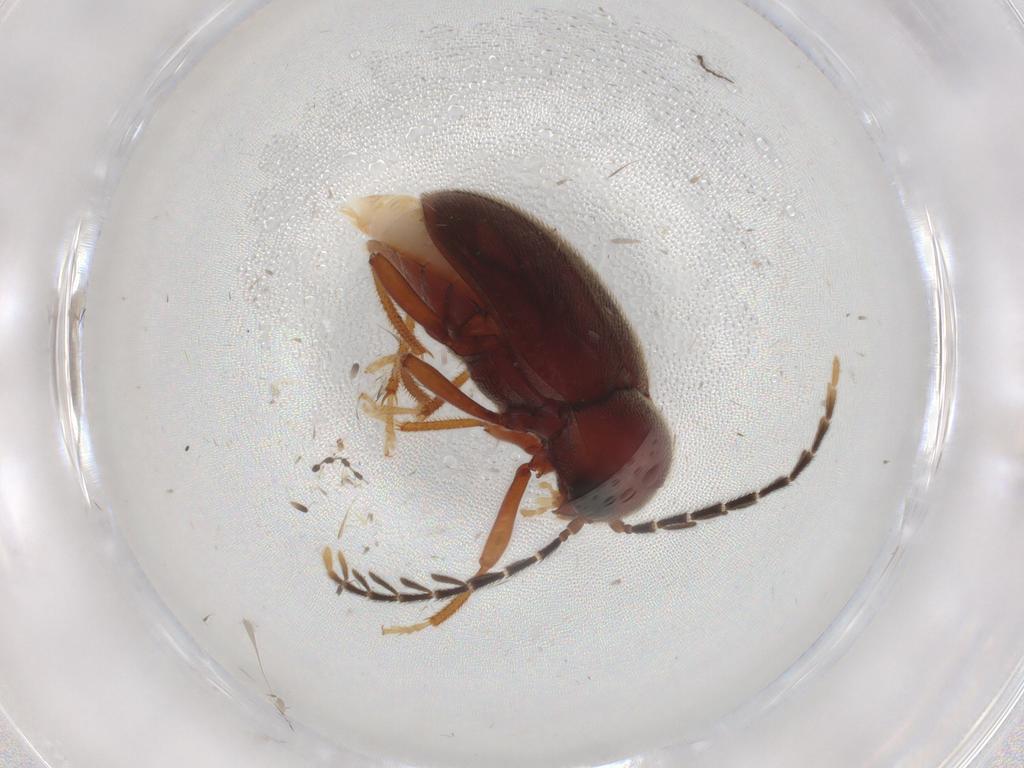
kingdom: Animalia
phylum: Arthropoda
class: Insecta
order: Coleoptera
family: Ptilodactylidae
